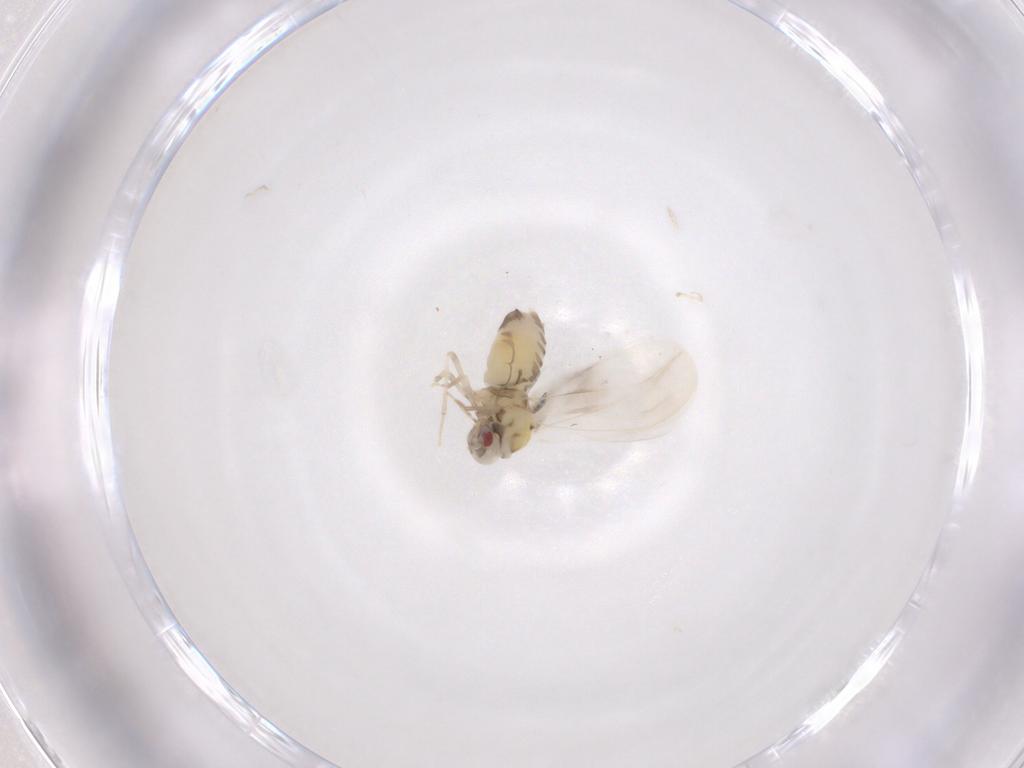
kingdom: Animalia
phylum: Arthropoda
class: Insecta
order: Hemiptera
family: Aleyrodidae
